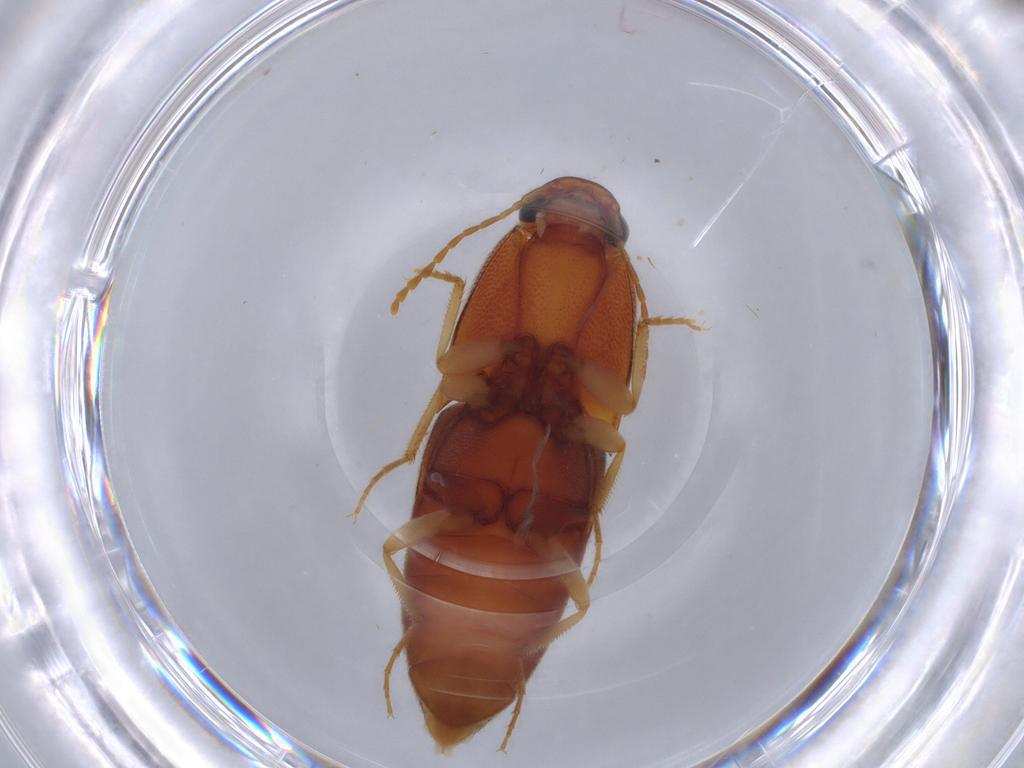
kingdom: Animalia
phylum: Arthropoda
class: Insecta
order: Coleoptera
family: Elateridae
